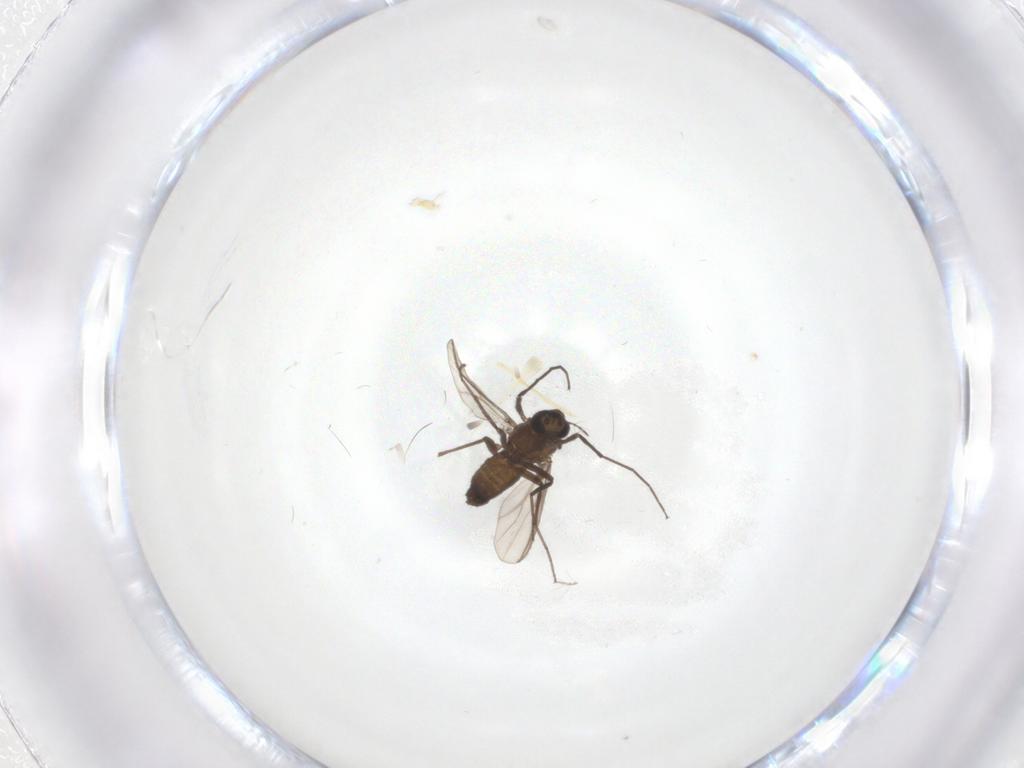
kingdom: Animalia
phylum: Arthropoda
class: Insecta
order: Diptera
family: Chironomidae
